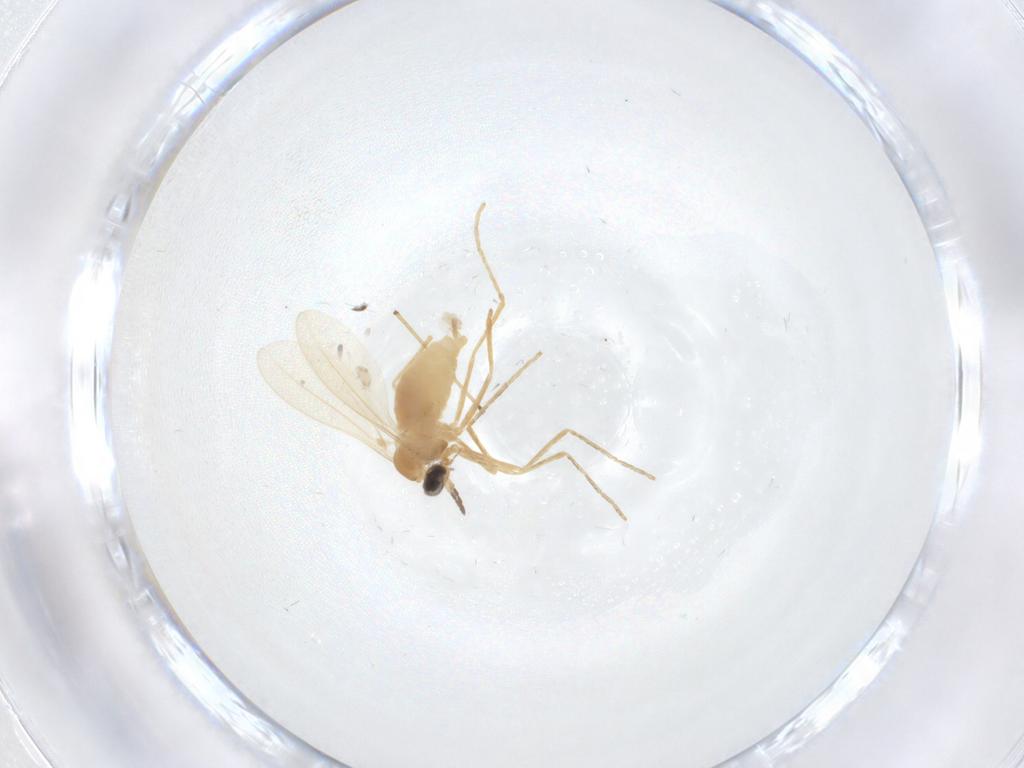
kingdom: Animalia
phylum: Arthropoda
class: Insecta
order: Diptera
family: Cecidomyiidae
